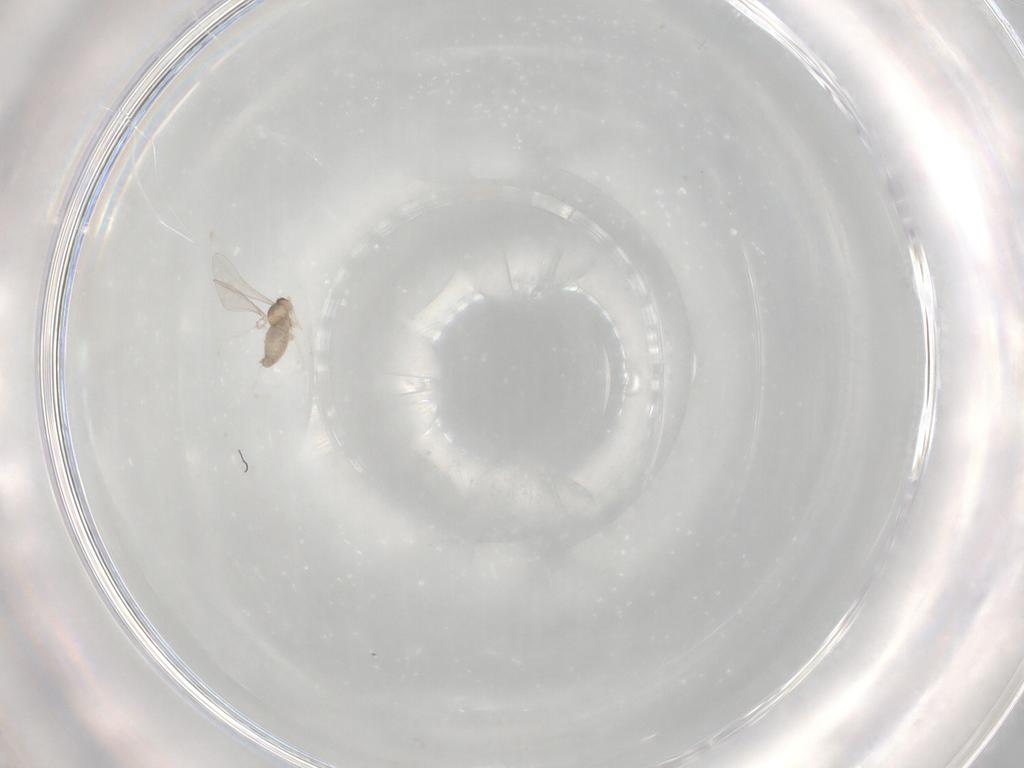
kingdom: Animalia
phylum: Arthropoda
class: Insecta
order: Diptera
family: Cecidomyiidae
